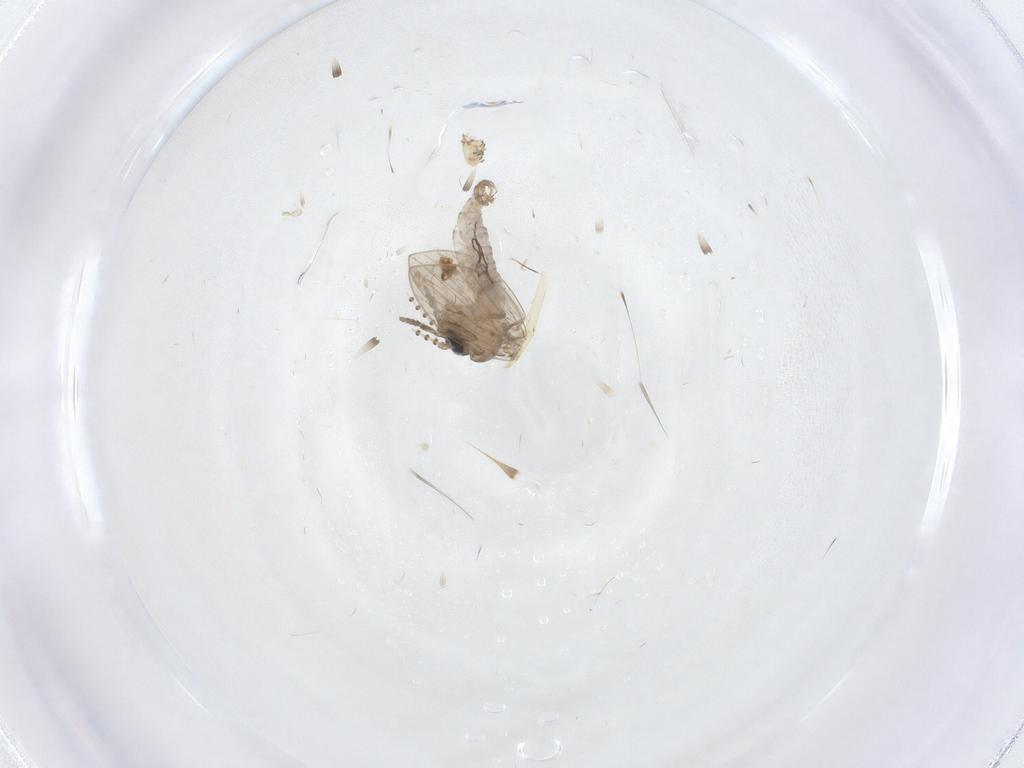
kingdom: Animalia
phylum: Arthropoda
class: Insecta
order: Diptera
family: Psychodidae
